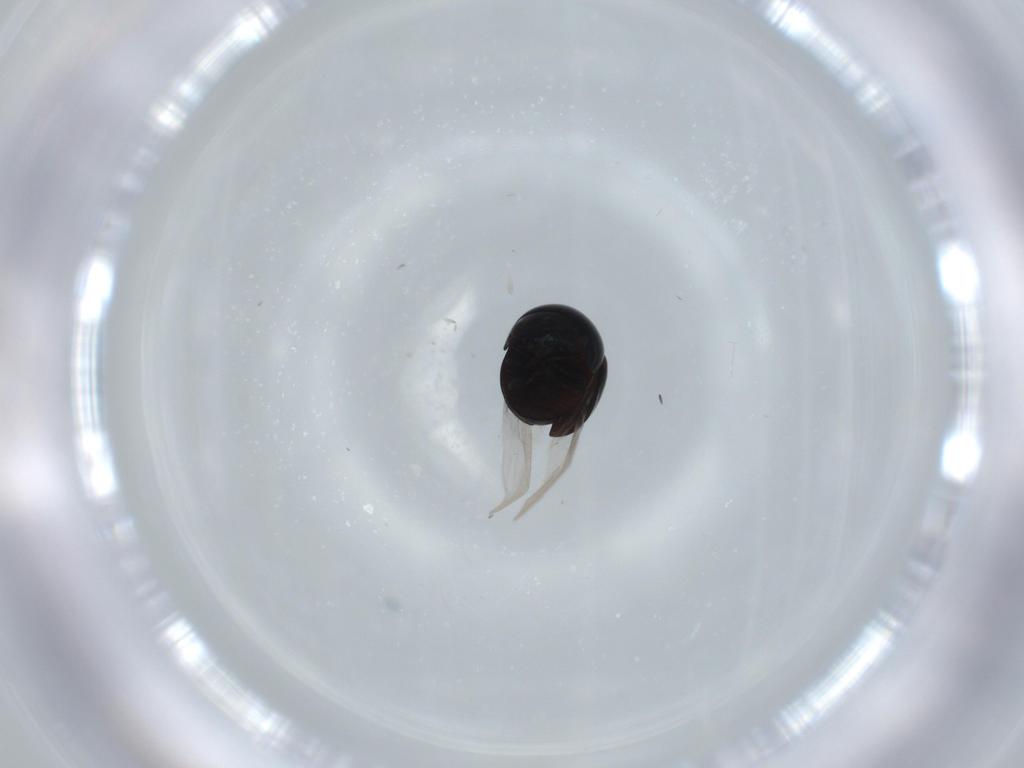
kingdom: Animalia
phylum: Arthropoda
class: Insecta
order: Coleoptera
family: Cybocephalidae
